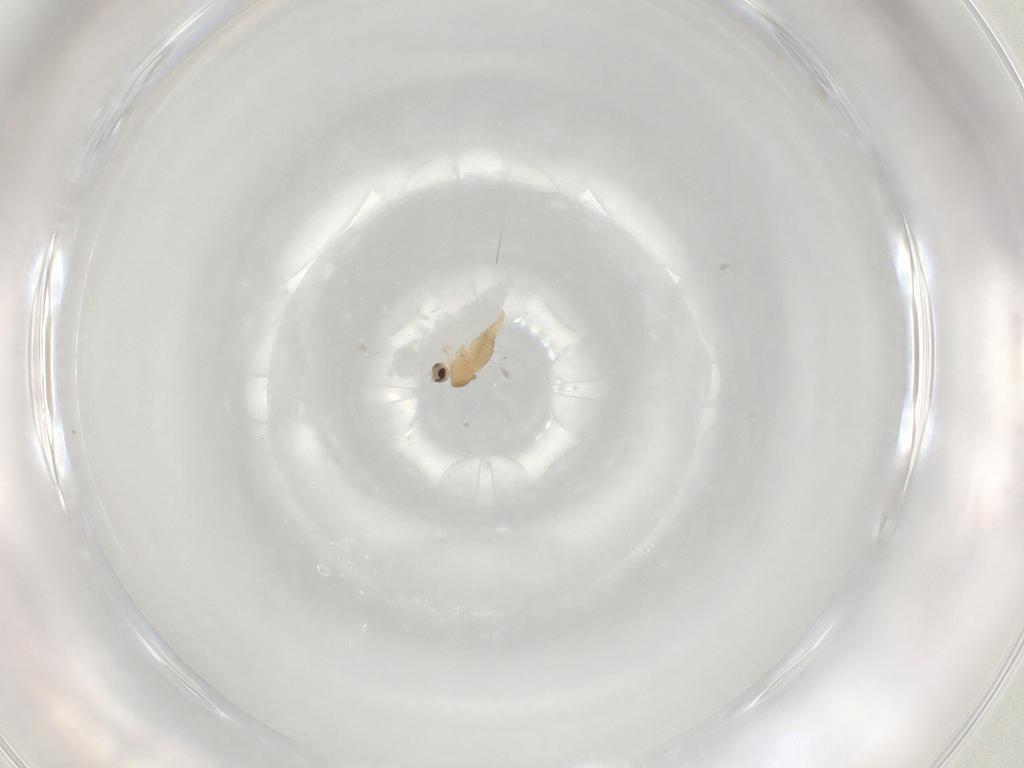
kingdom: Animalia
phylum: Arthropoda
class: Insecta
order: Diptera
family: Cecidomyiidae
